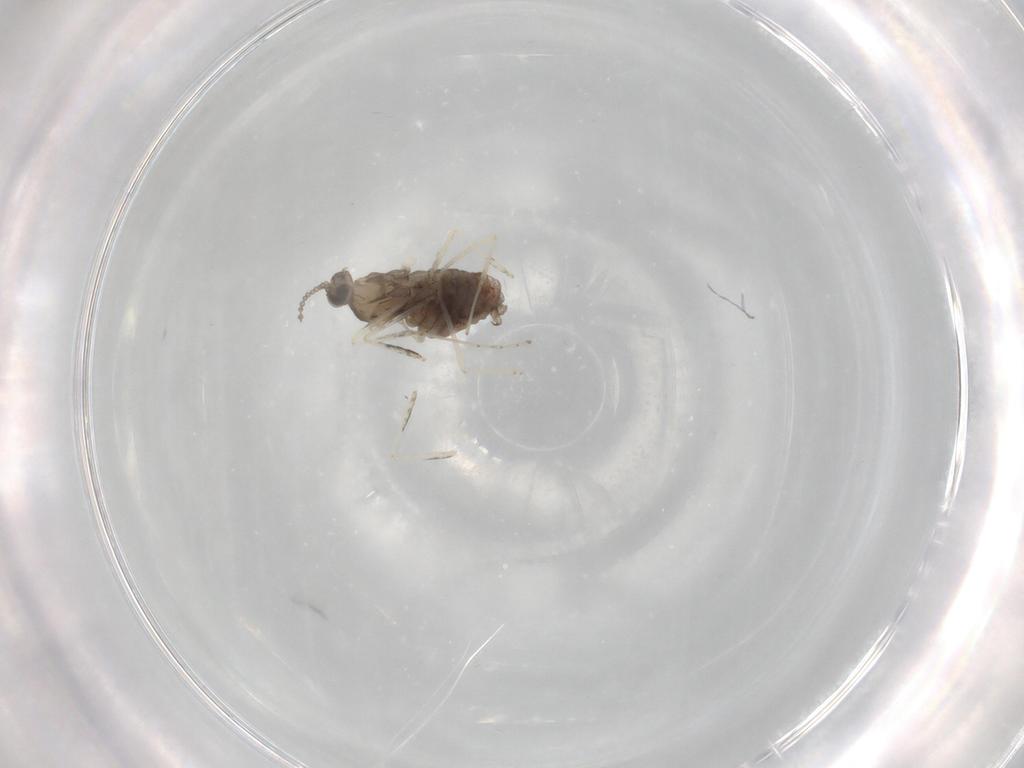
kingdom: Animalia
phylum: Arthropoda
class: Insecta
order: Diptera
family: Cecidomyiidae
